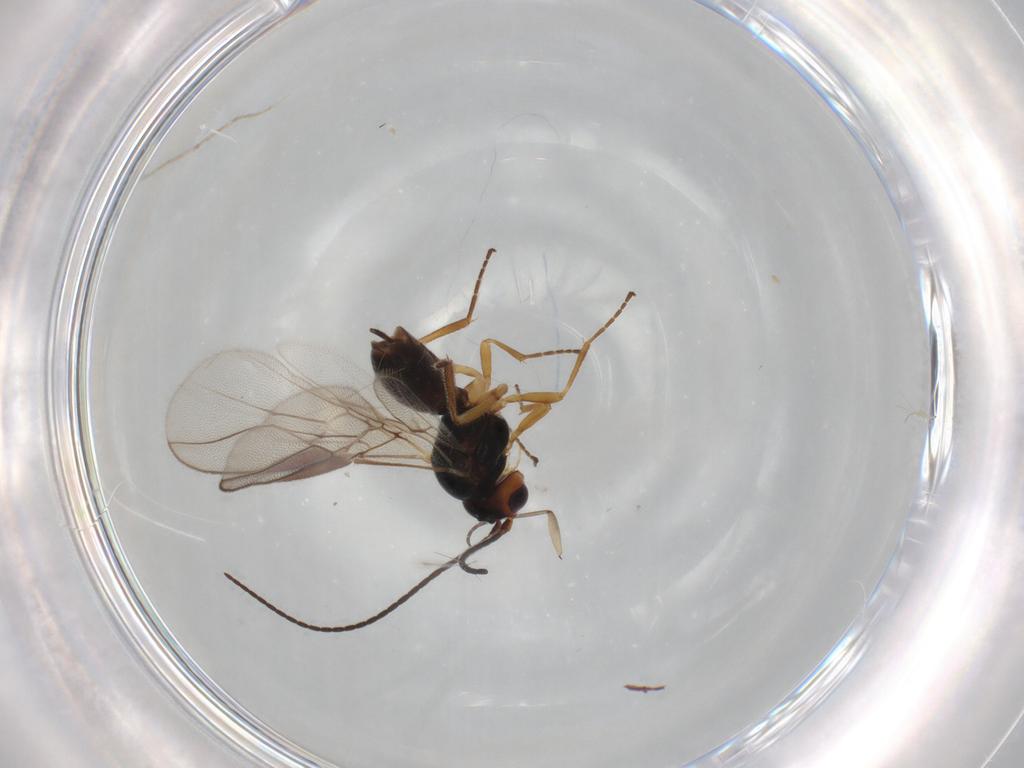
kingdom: Animalia
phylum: Arthropoda
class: Insecta
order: Hymenoptera
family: Braconidae
